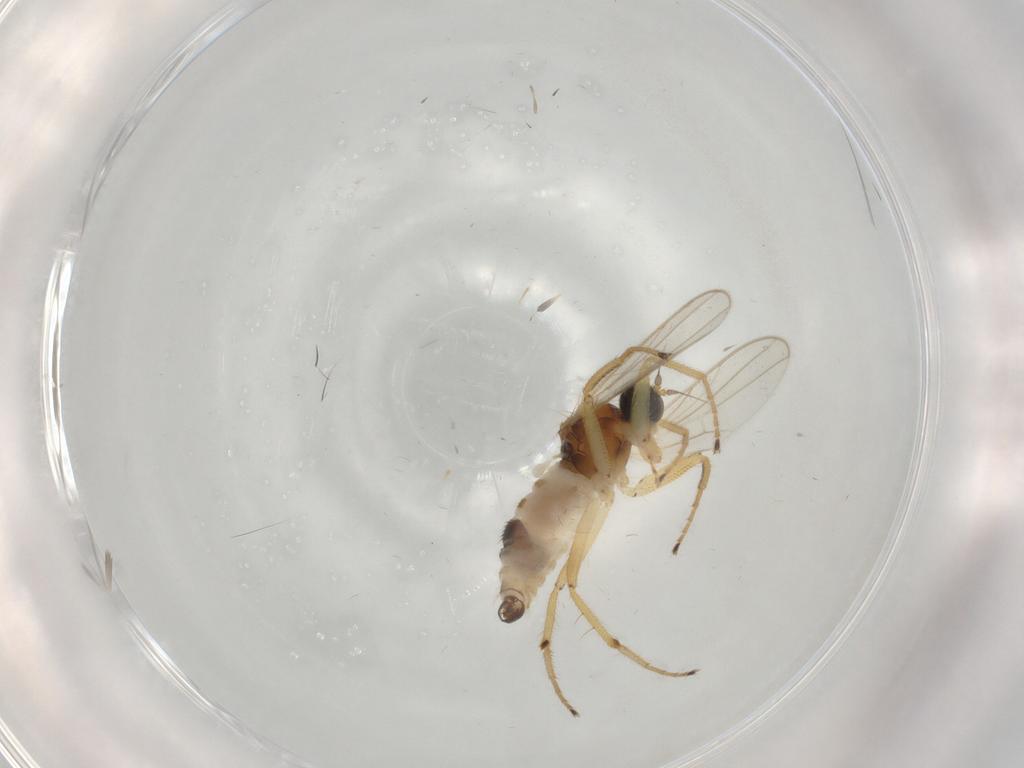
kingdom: Animalia
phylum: Arthropoda
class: Insecta
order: Diptera
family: Hybotidae
